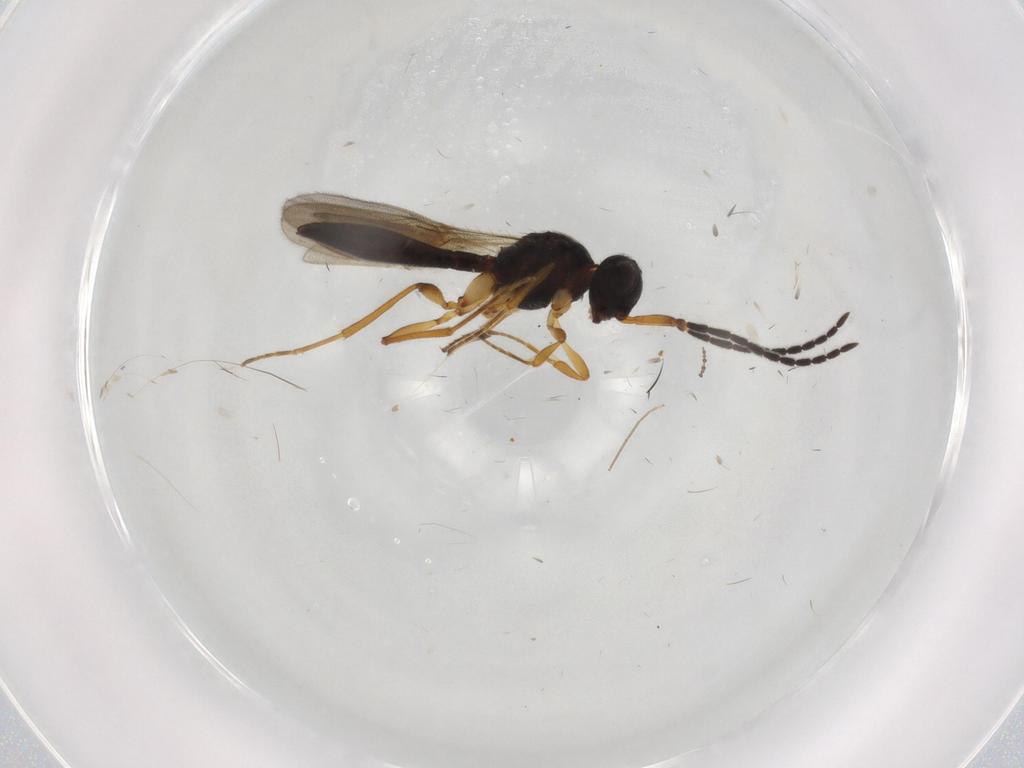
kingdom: Animalia
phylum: Arthropoda
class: Insecta
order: Hymenoptera
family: Scelionidae
